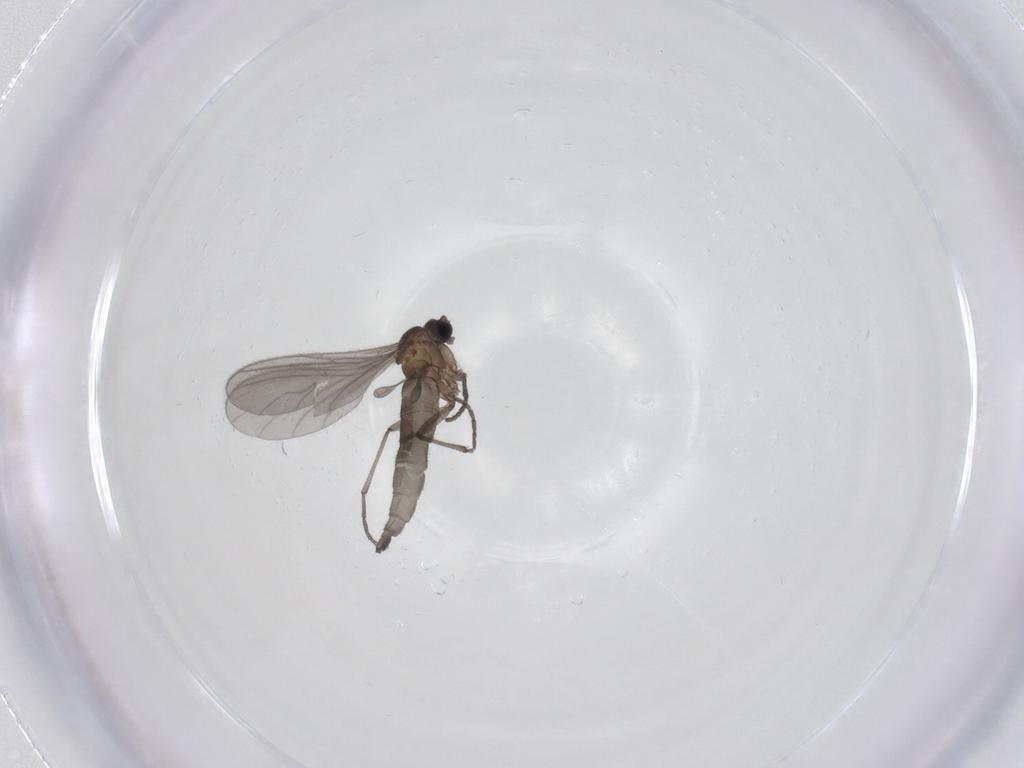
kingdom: Animalia
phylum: Arthropoda
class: Insecta
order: Diptera
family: Sciaridae
